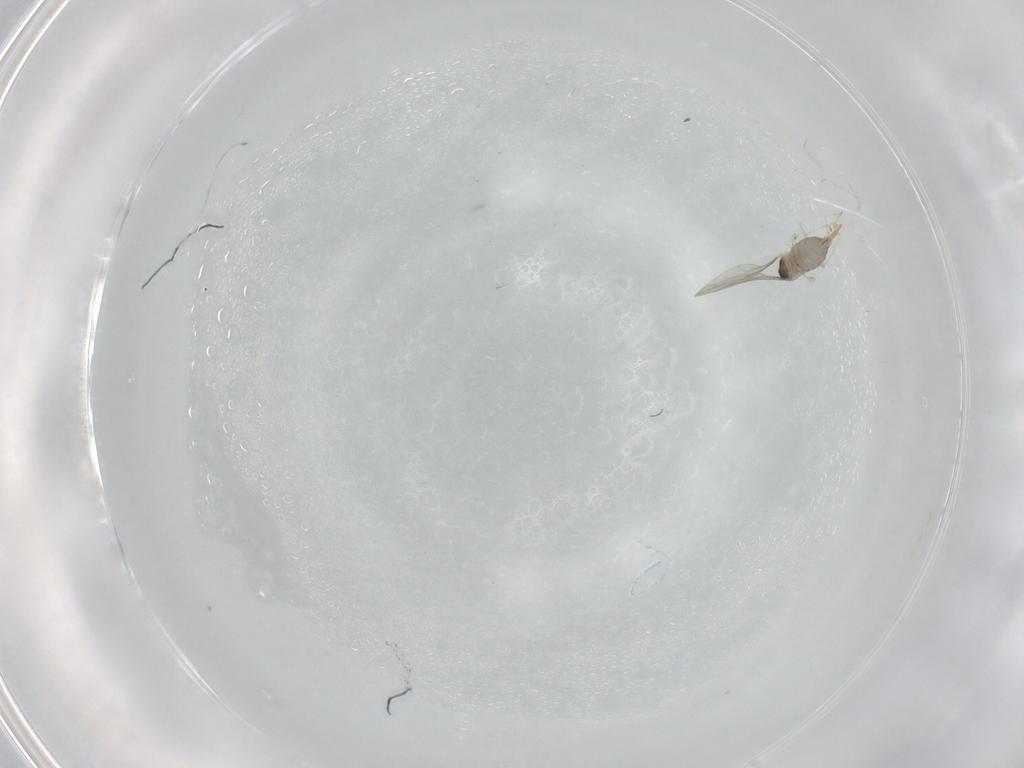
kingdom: Animalia
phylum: Arthropoda
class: Insecta
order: Diptera
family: Cecidomyiidae
